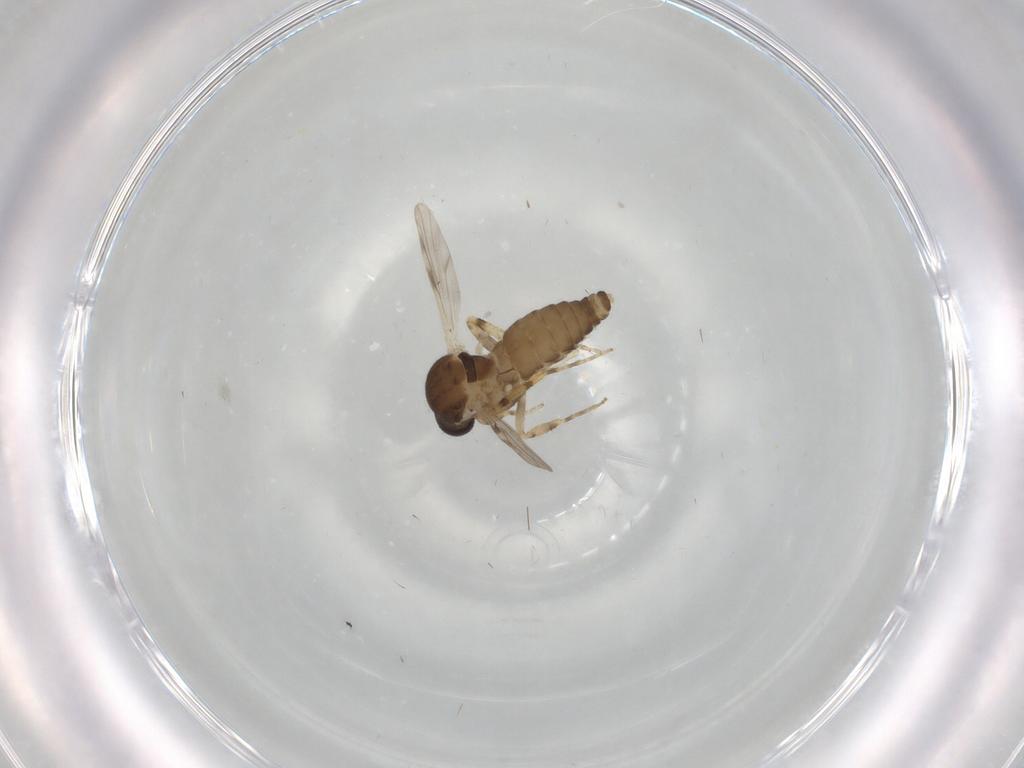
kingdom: Animalia
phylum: Arthropoda
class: Insecta
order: Diptera
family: Ceratopogonidae
